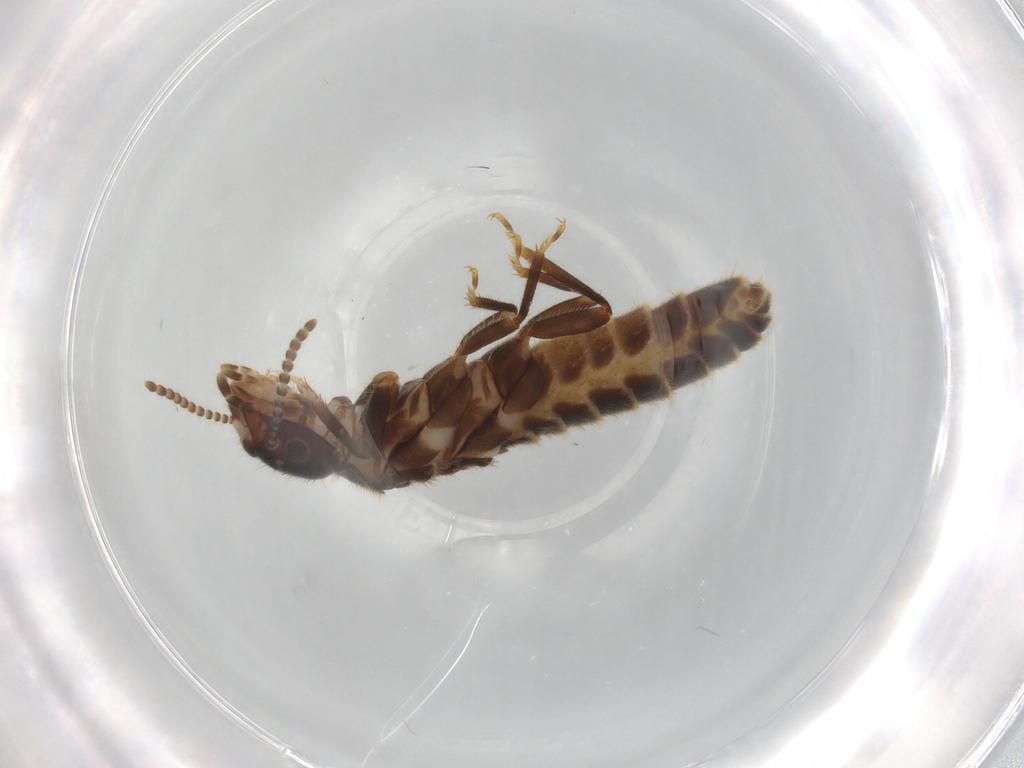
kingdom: Animalia
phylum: Arthropoda
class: Insecta
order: Blattodea
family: Termitidae
